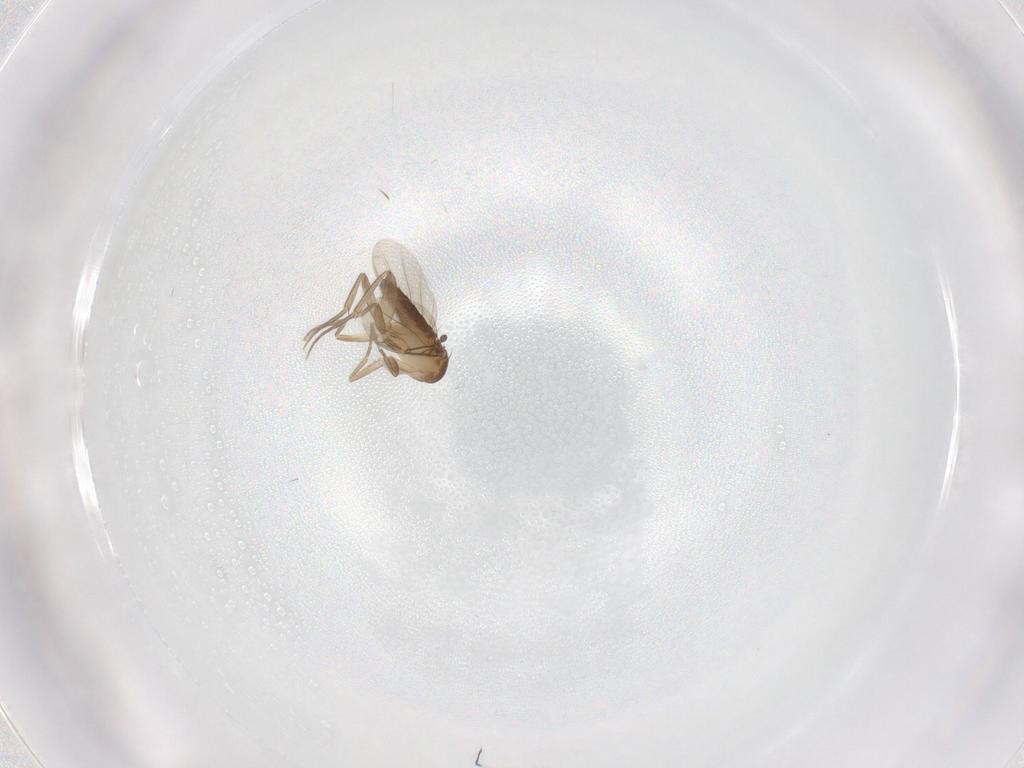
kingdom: Animalia
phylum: Arthropoda
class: Insecta
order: Diptera
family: Phoridae
